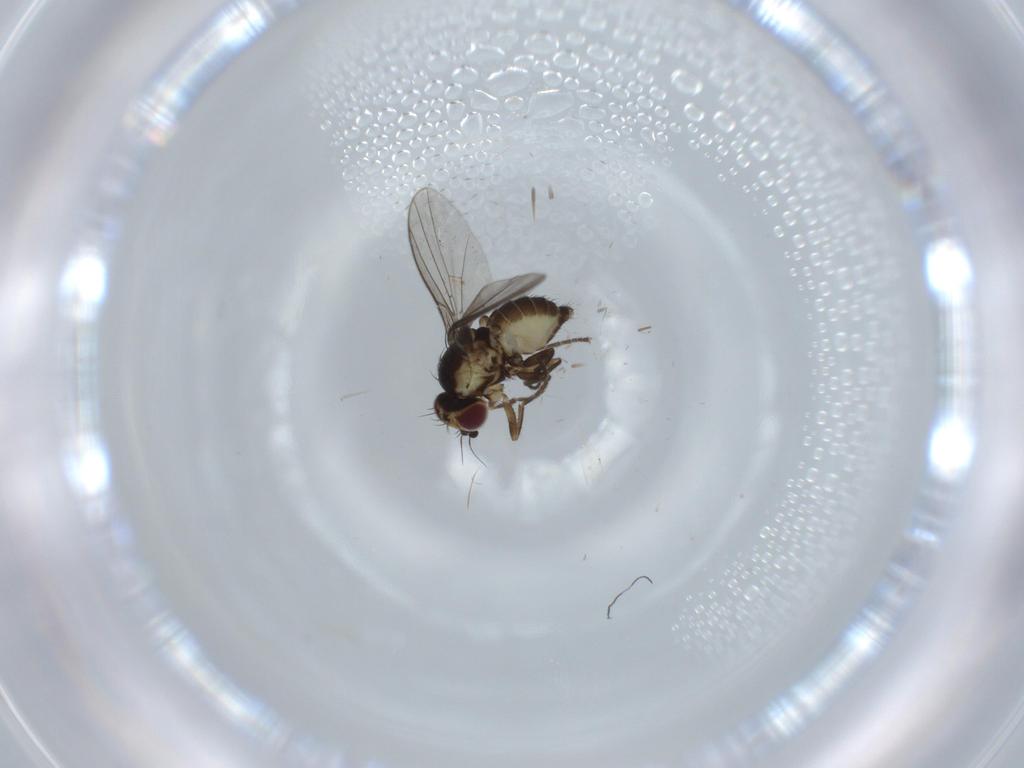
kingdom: Animalia
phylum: Arthropoda
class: Insecta
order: Diptera
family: Agromyzidae
